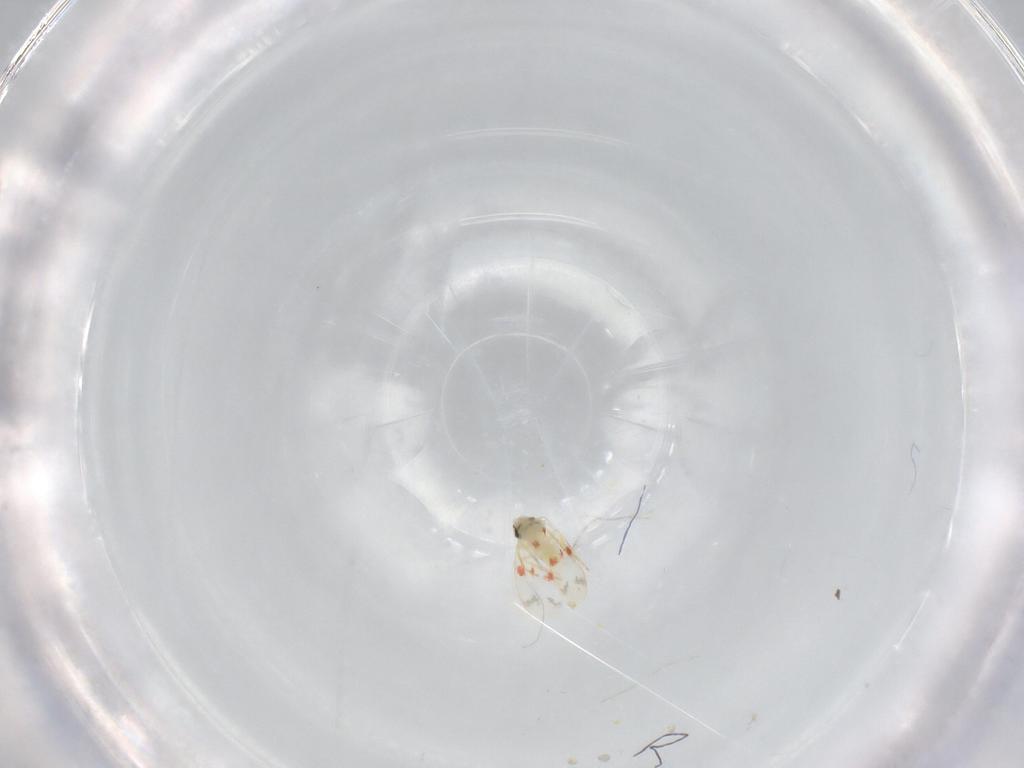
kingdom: Animalia
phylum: Arthropoda
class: Insecta
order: Hemiptera
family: Aleyrodidae
